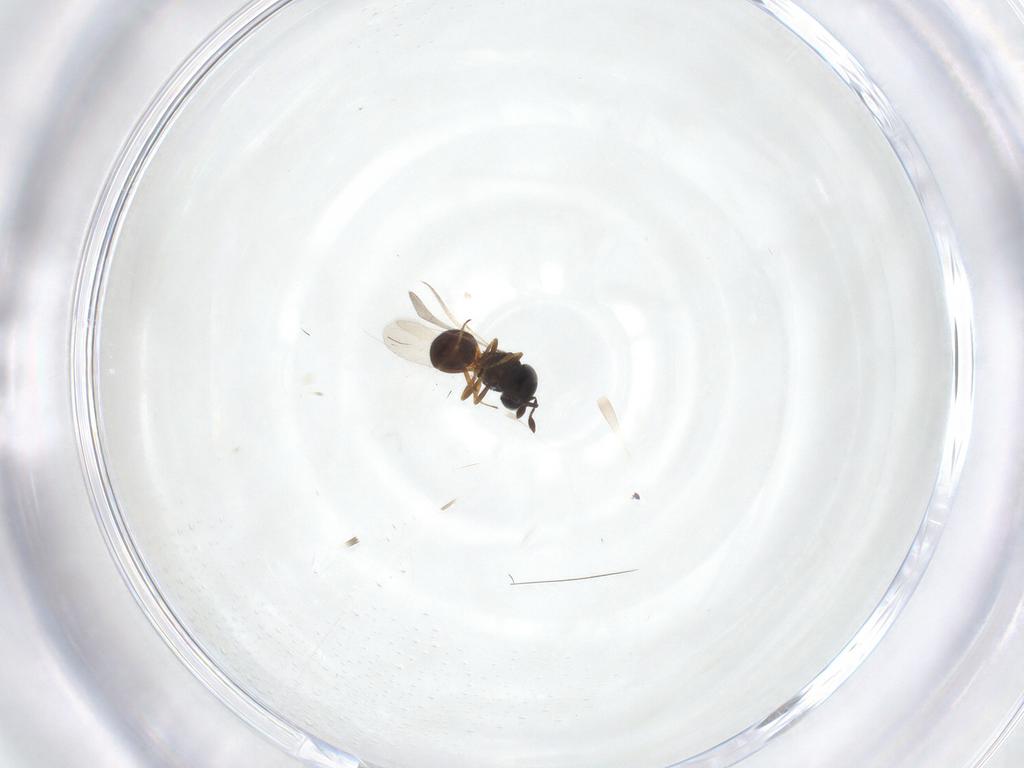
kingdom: Animalia
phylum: Arthropoda
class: Arachnida
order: Araneae
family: Pholcidae
